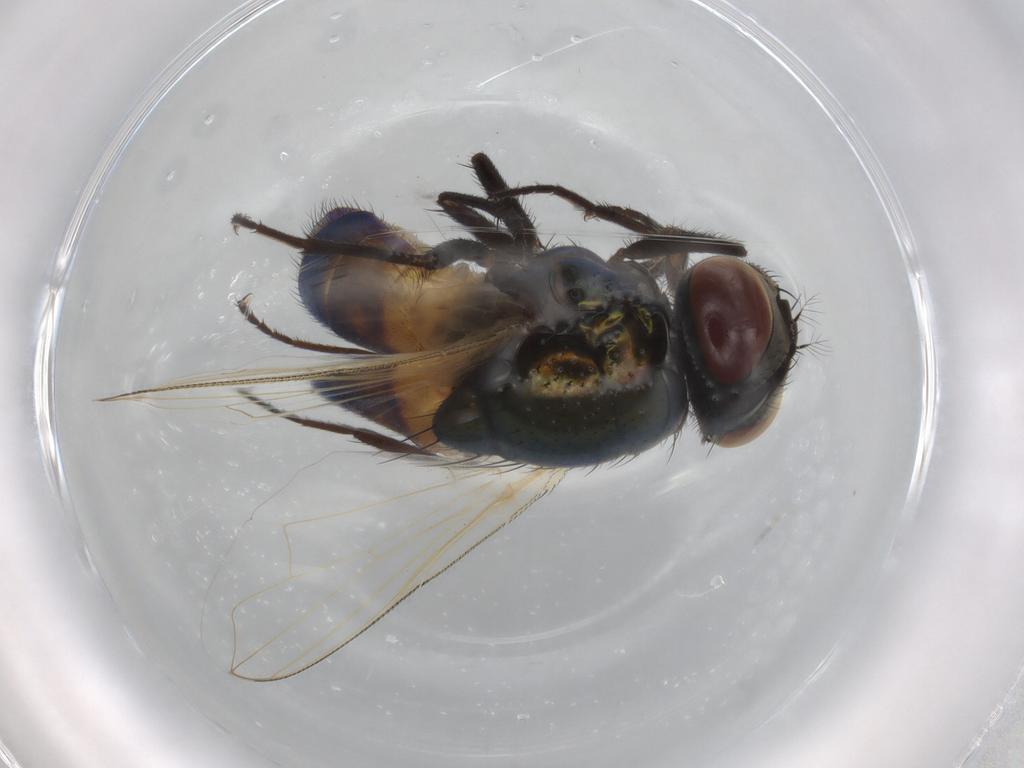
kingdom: Animalia
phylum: Arthropoda
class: Insecta
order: Diptera
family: Muscidae
